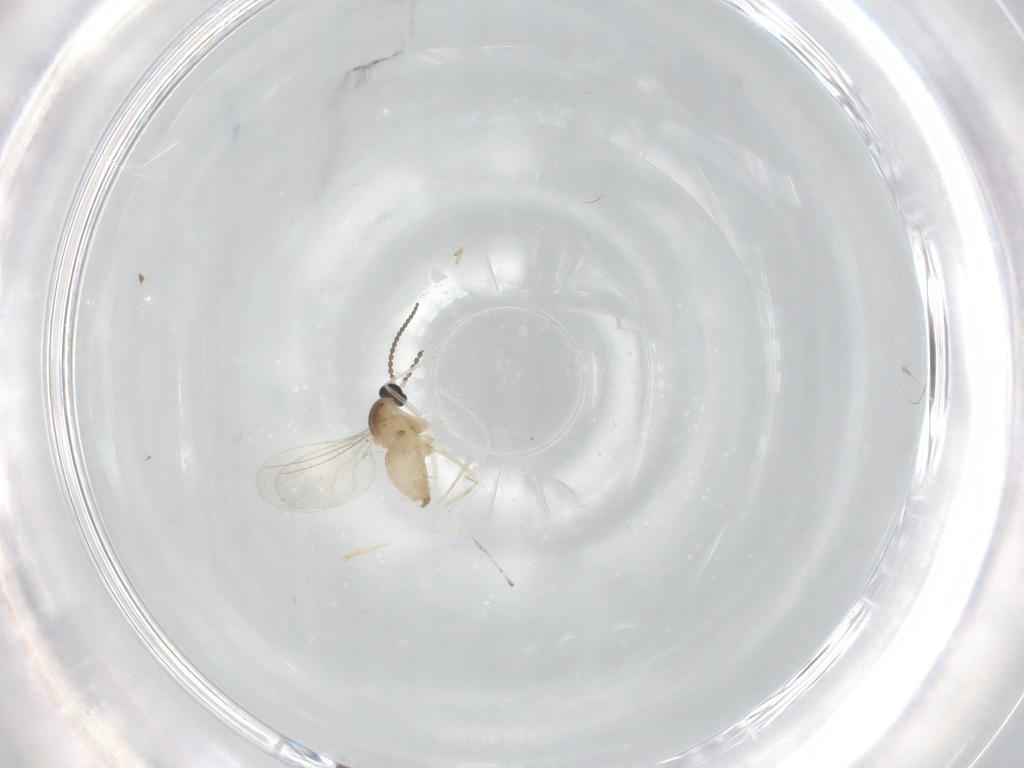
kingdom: Animalia
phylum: Arthropoda
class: Insecta
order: Diptera
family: Cecidomyiidae
